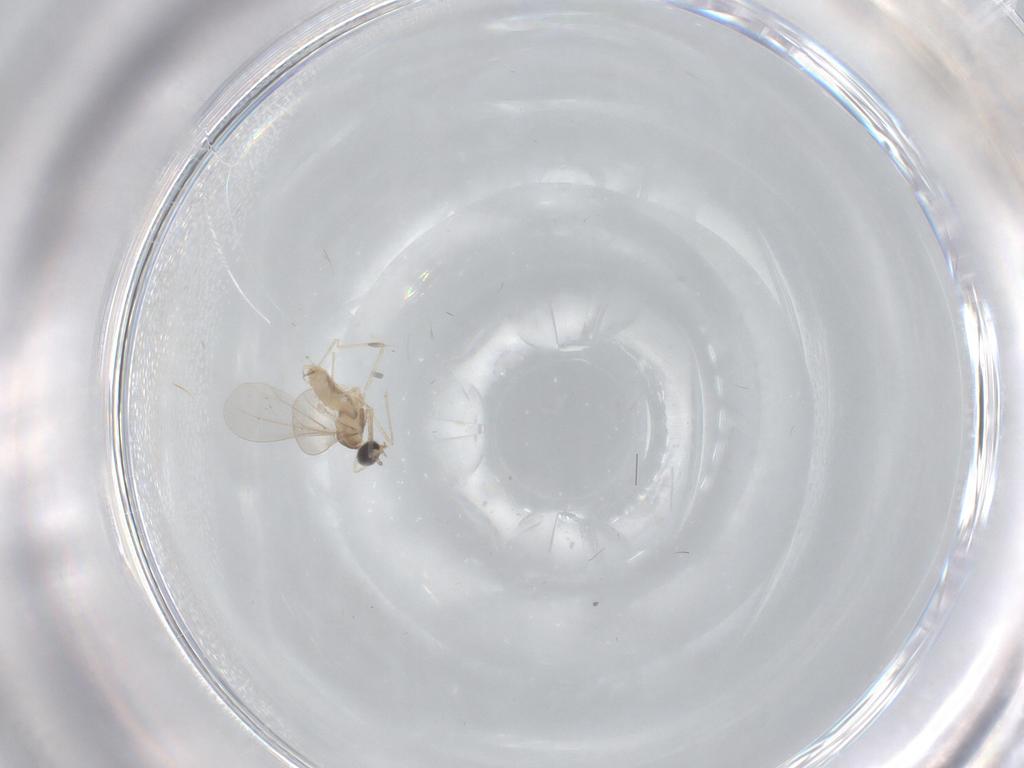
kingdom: Animalia
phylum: Arthropoda
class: Insecta
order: Diptera
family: Cecidomyiidae
